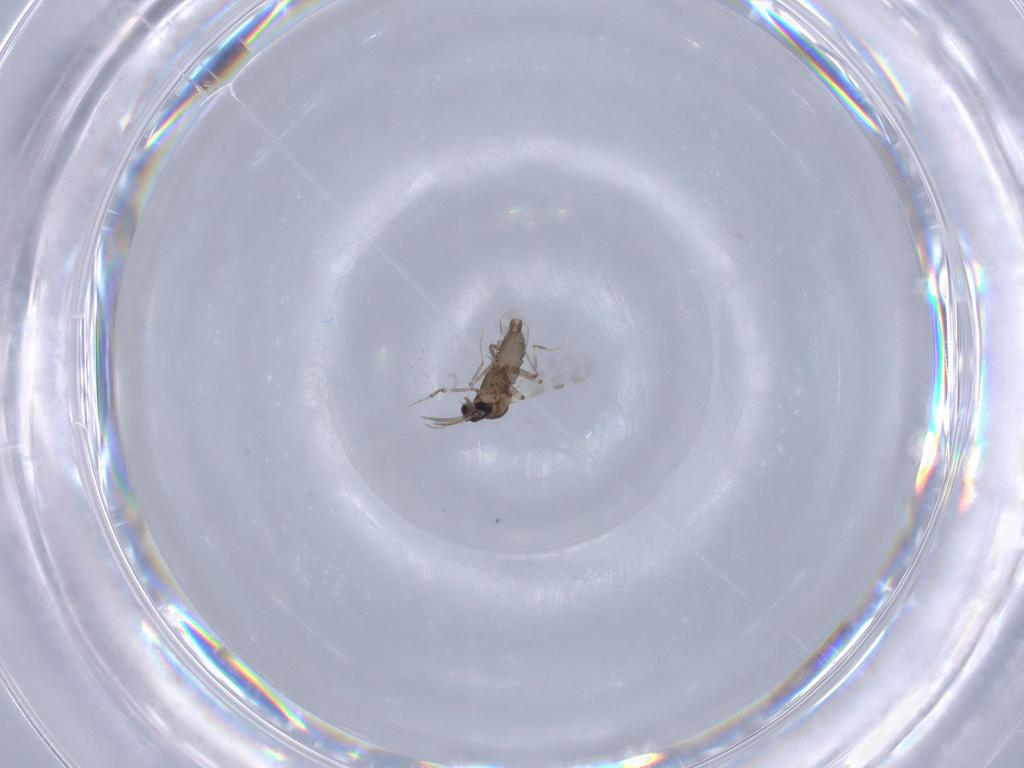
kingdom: Animalia
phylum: Arthropoda
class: Insecta
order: Diptera
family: Ceratopogonidae
